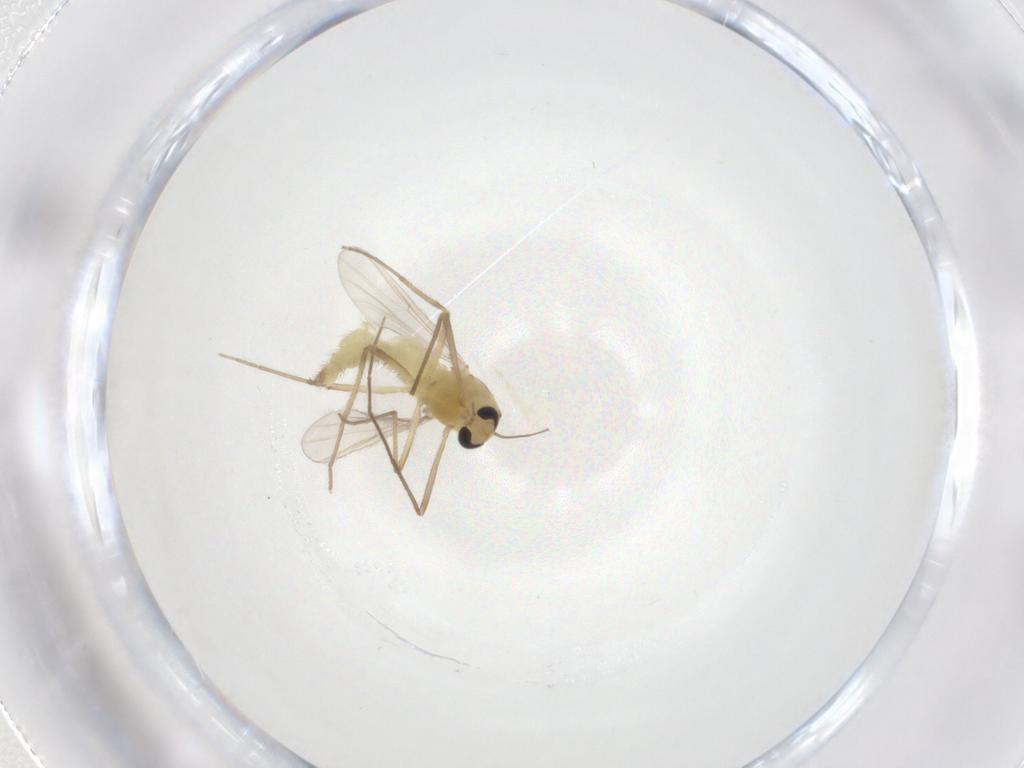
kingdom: Animalia
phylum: Arthropoda
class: Insecta
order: Diptera
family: Chironomidae
